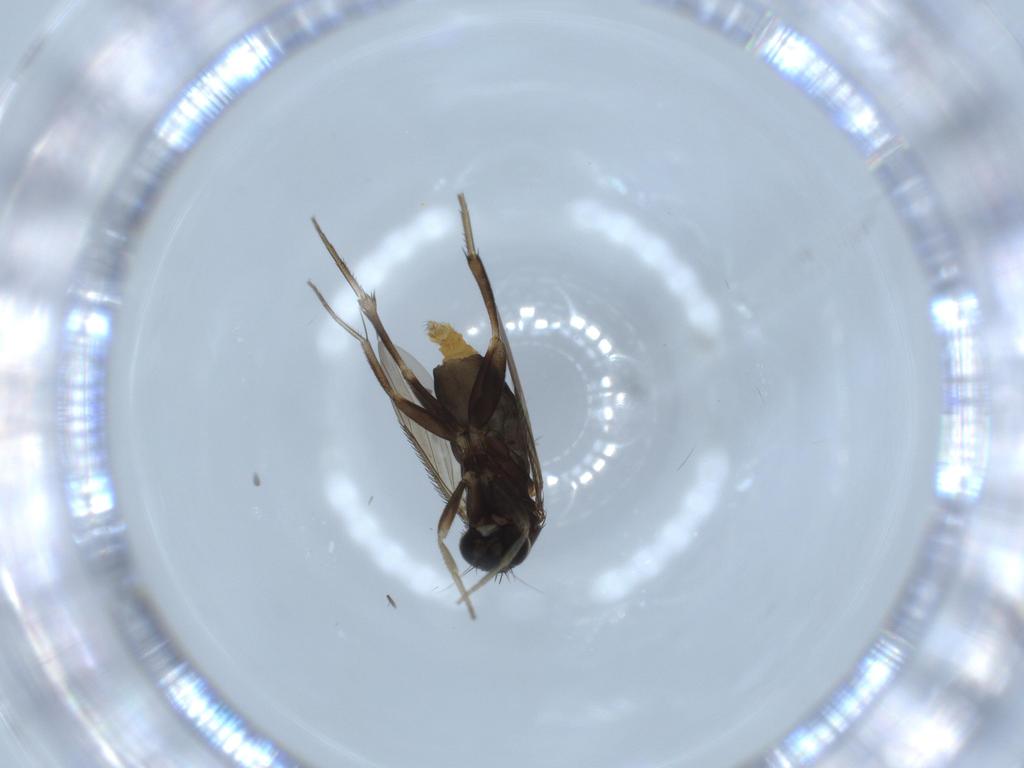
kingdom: Animalia
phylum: Arthropoda
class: Insecta
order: Diptera
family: Phoridae
